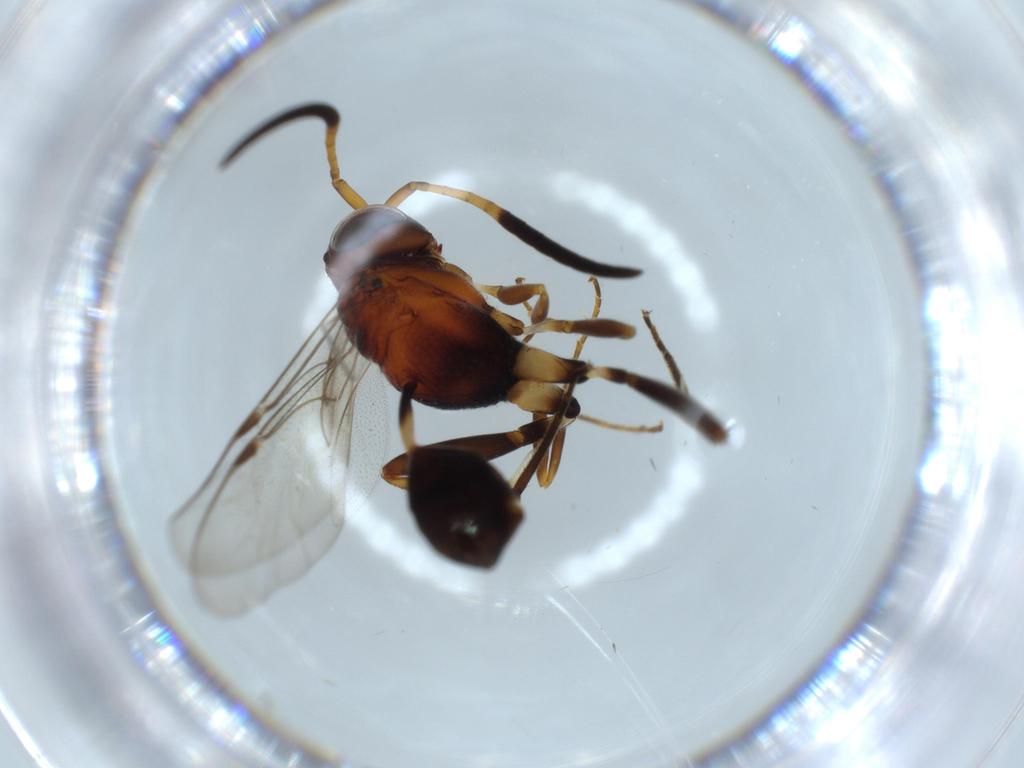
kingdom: Animalia
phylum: Arthropoda
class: Insecta
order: Hymenoptera
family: Evaniidae
